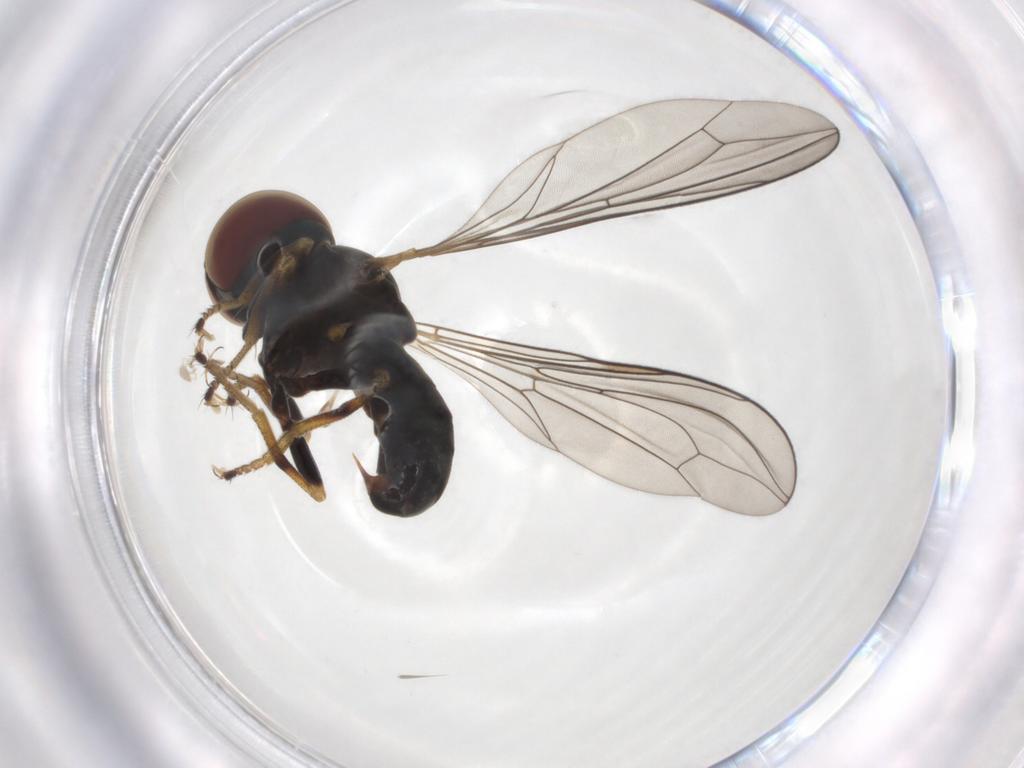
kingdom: Animalia
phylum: Arthropoda
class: Insecta
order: Diptera
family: Pipunculidae
